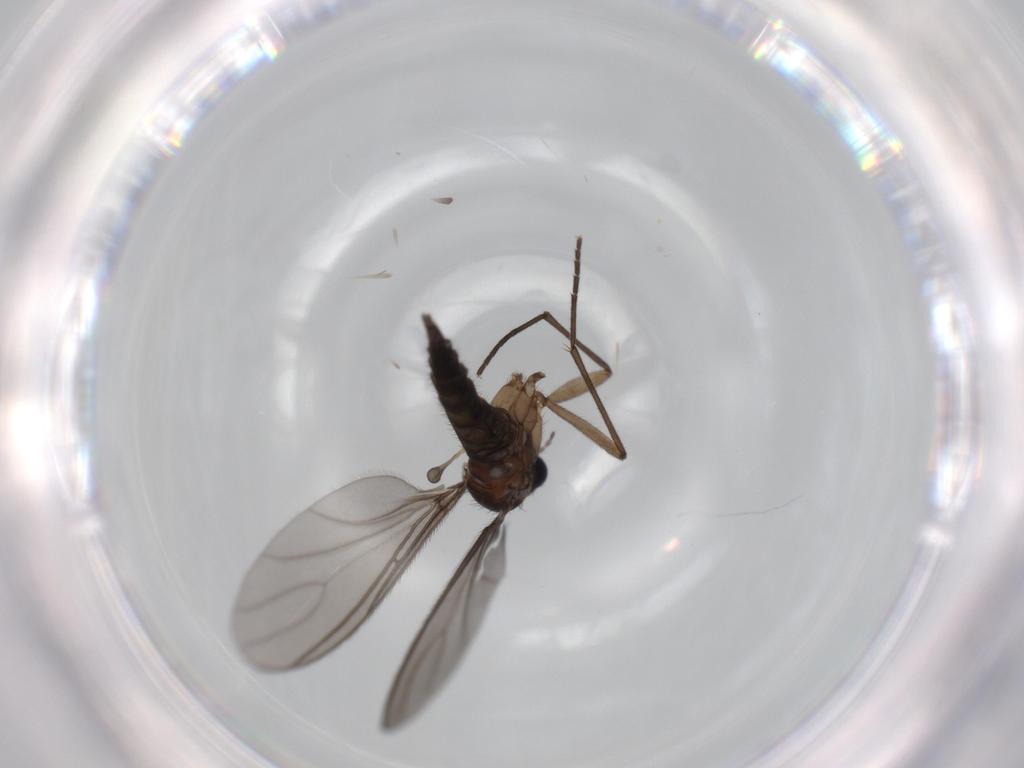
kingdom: Animalia
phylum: Arthropoda
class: Insecta
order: Diptera
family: Sciaridae
